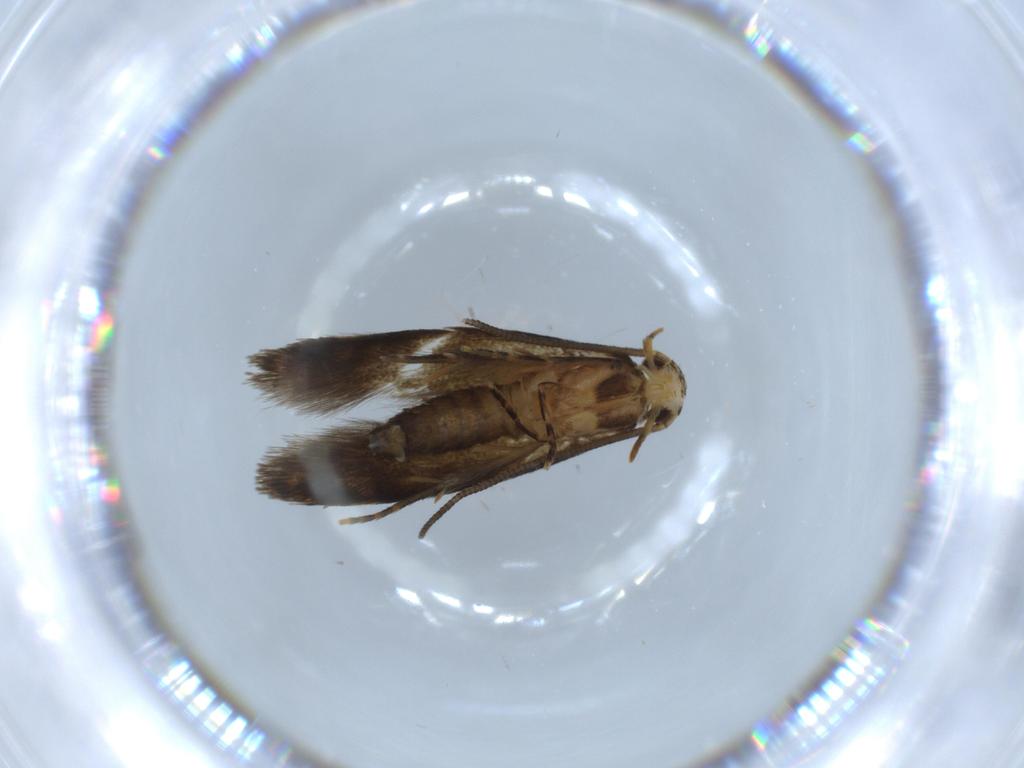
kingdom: Animalia
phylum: Arthropoda
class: Insecta
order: Lepidoptera
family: Tineidae
